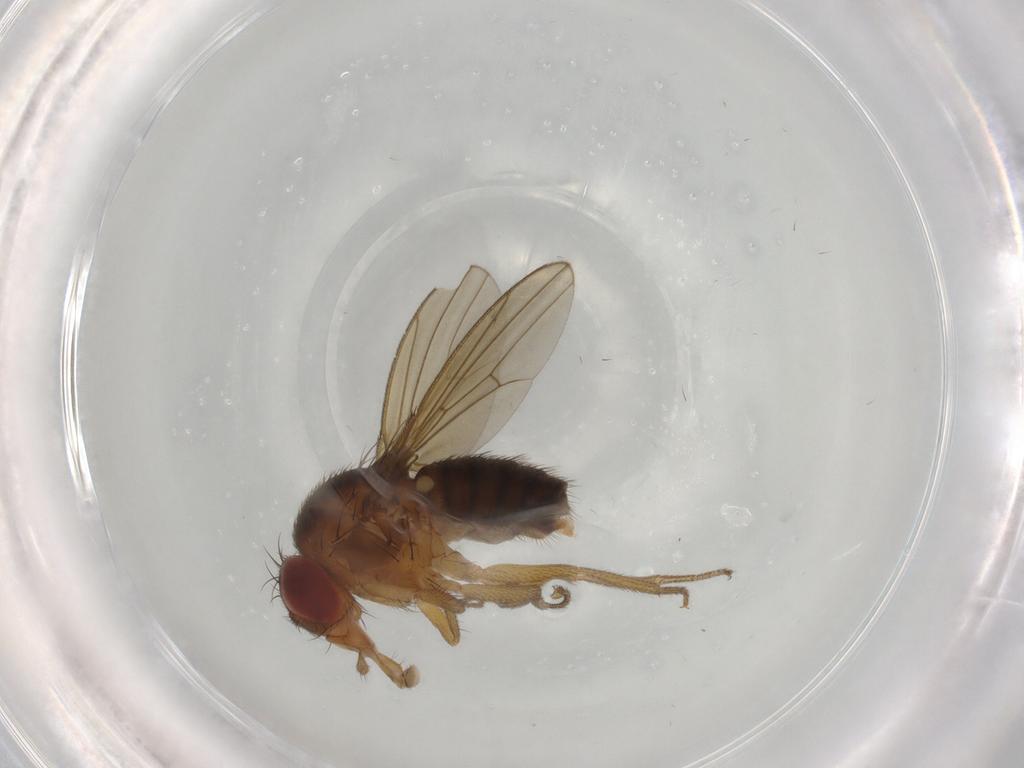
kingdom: Animalia
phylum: Arthropoda
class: Insecta
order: Diptera
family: Drosophilidae
